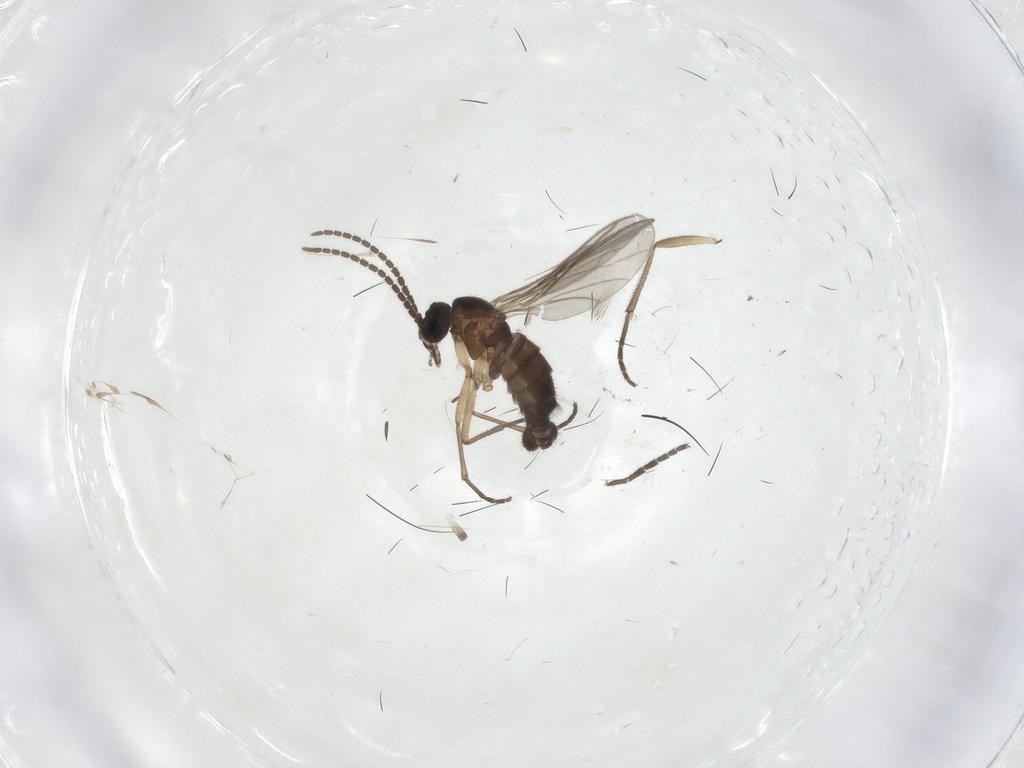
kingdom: Animalia
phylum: Arthropoda
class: Insecta
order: Diptera
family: Sciaridae
